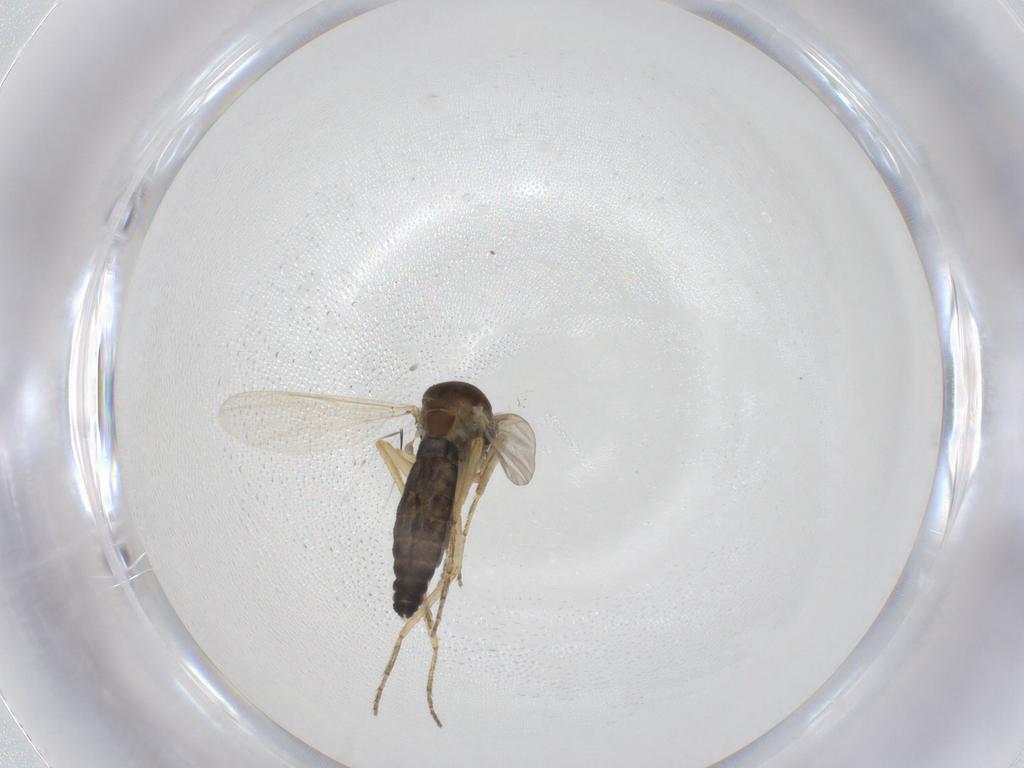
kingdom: Animalia
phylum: Arthropoda
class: Insecta
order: Diptera
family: Ceratopogonidae
